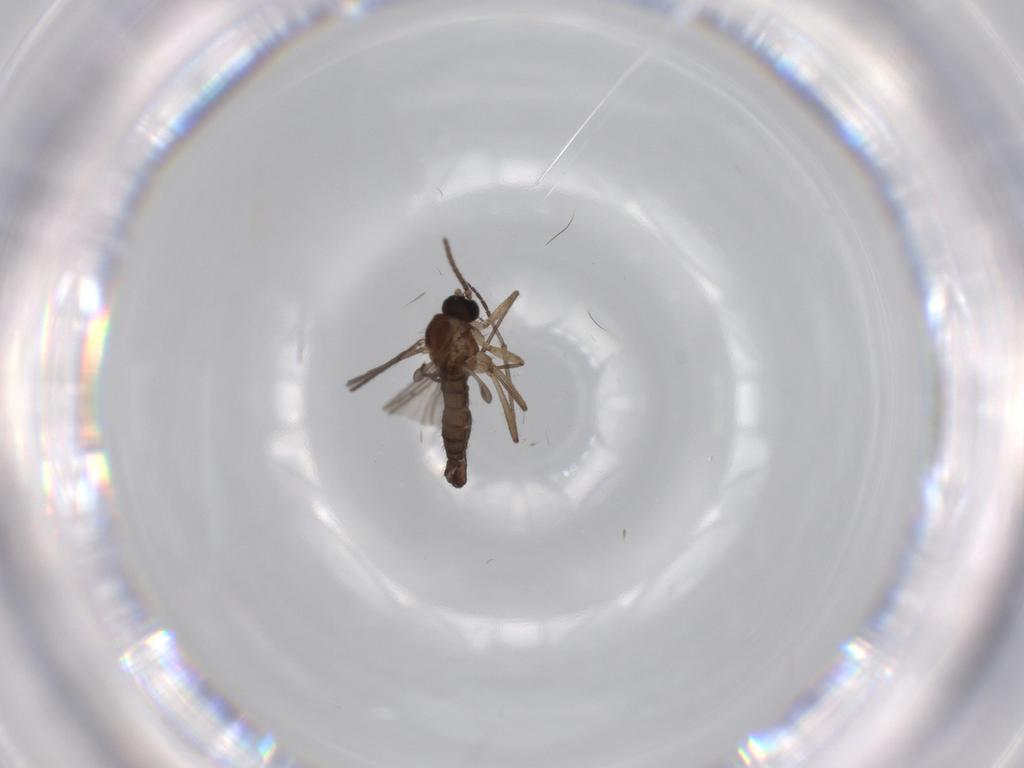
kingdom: Animalia
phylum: Arthropoda
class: Insecta
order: Diptera
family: Sciaridae
